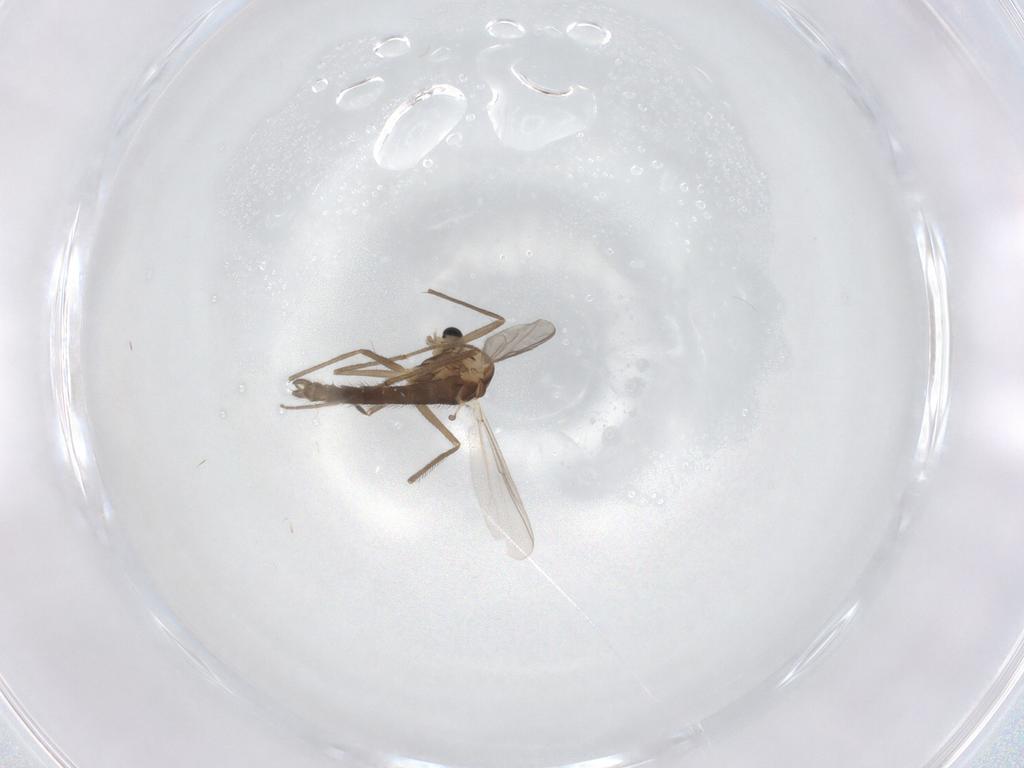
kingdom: Animalia
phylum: Arthropoda
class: Insecta
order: Diptera
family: Chironomidae
